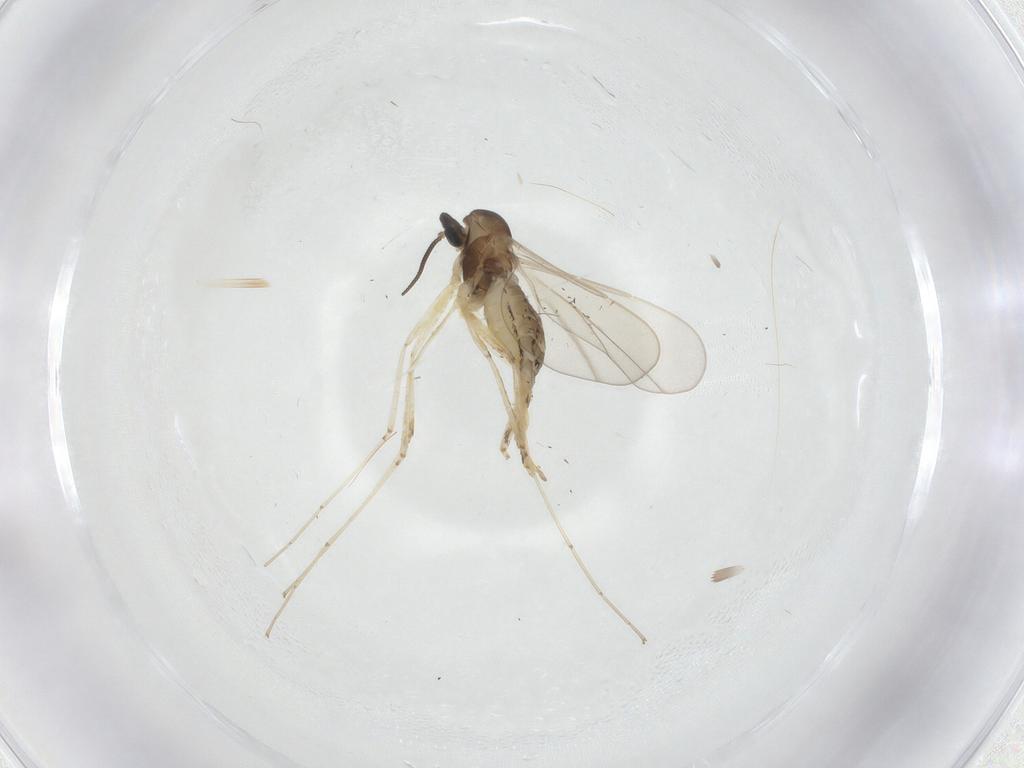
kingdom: Animalia
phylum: Arthropoda
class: Insecta
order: Diptera
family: Cecidomyiidae
